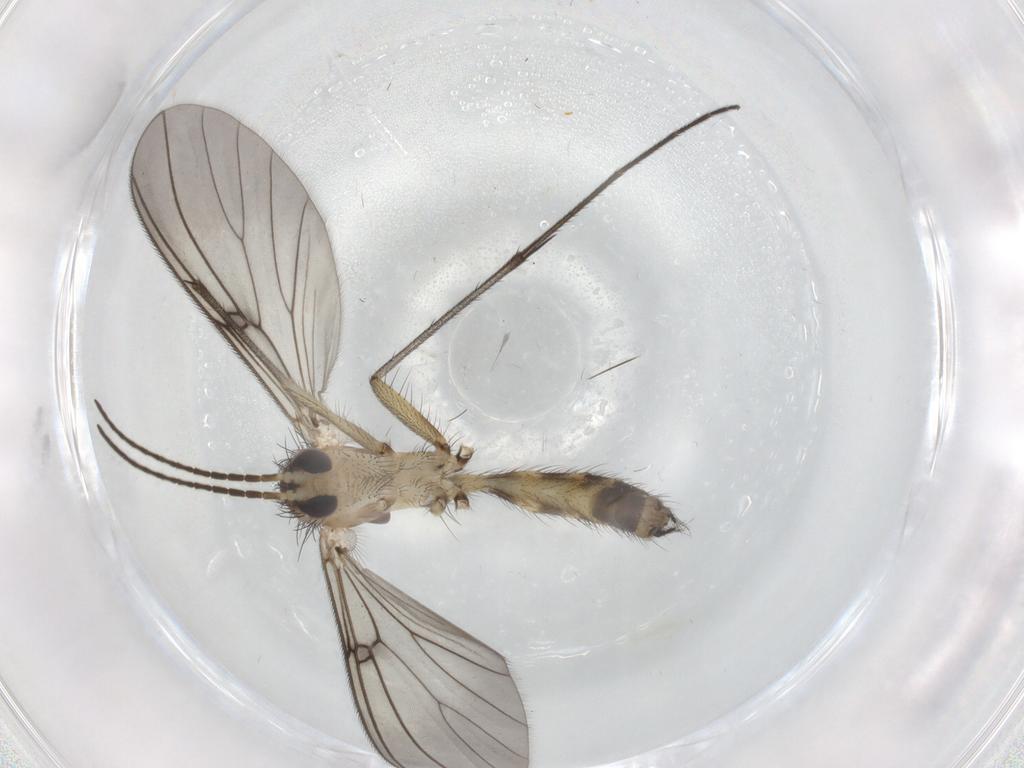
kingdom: Animalia
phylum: Arthropoda
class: Insecta
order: Diptera
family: Mycetophilidae
